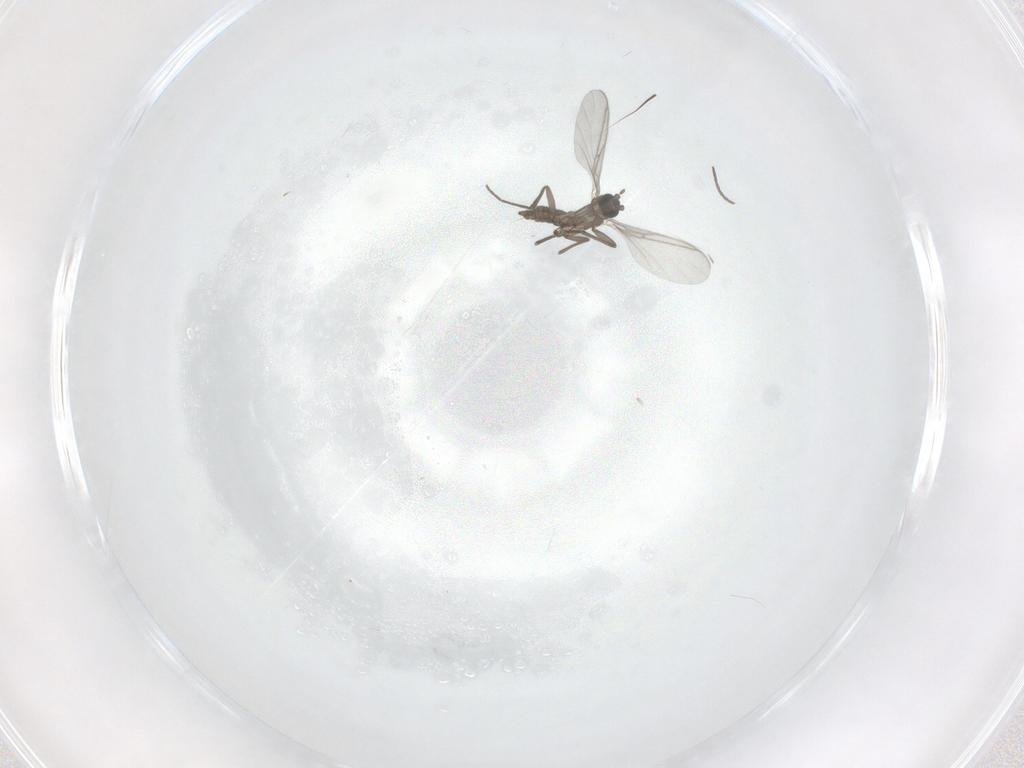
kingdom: Animalia
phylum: Arthropoda
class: Insecta
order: Diptera
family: Sciaridae
